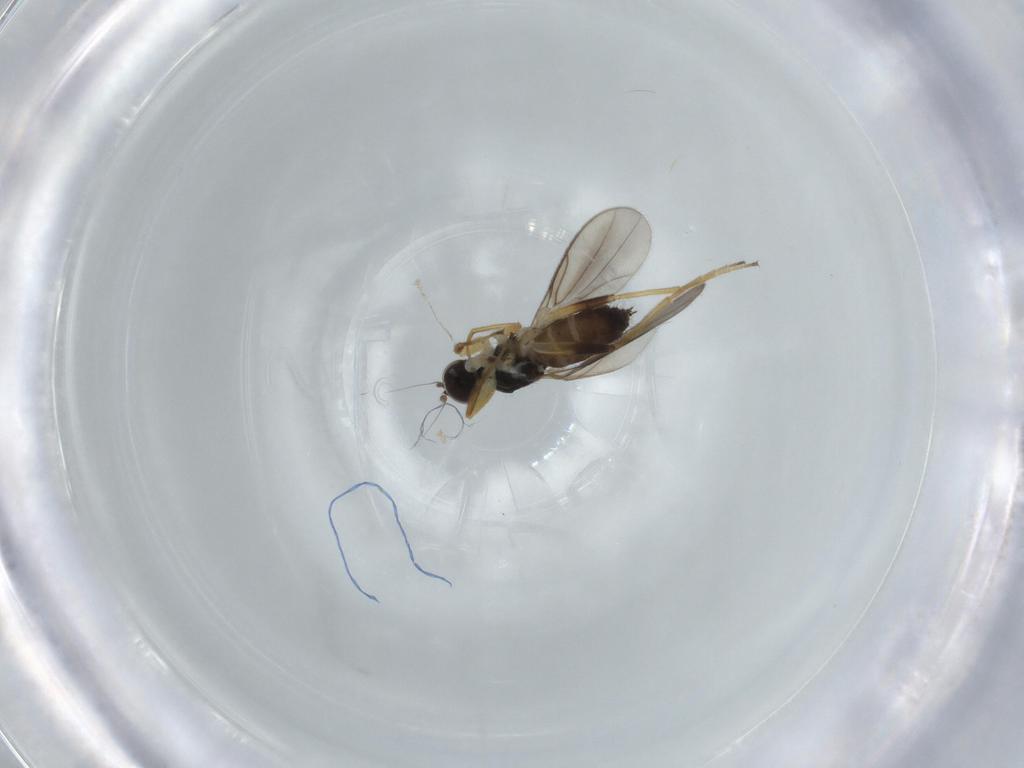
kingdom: Animalia
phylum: Arthropoda
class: Insecta
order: Diptera
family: Hybotidae
